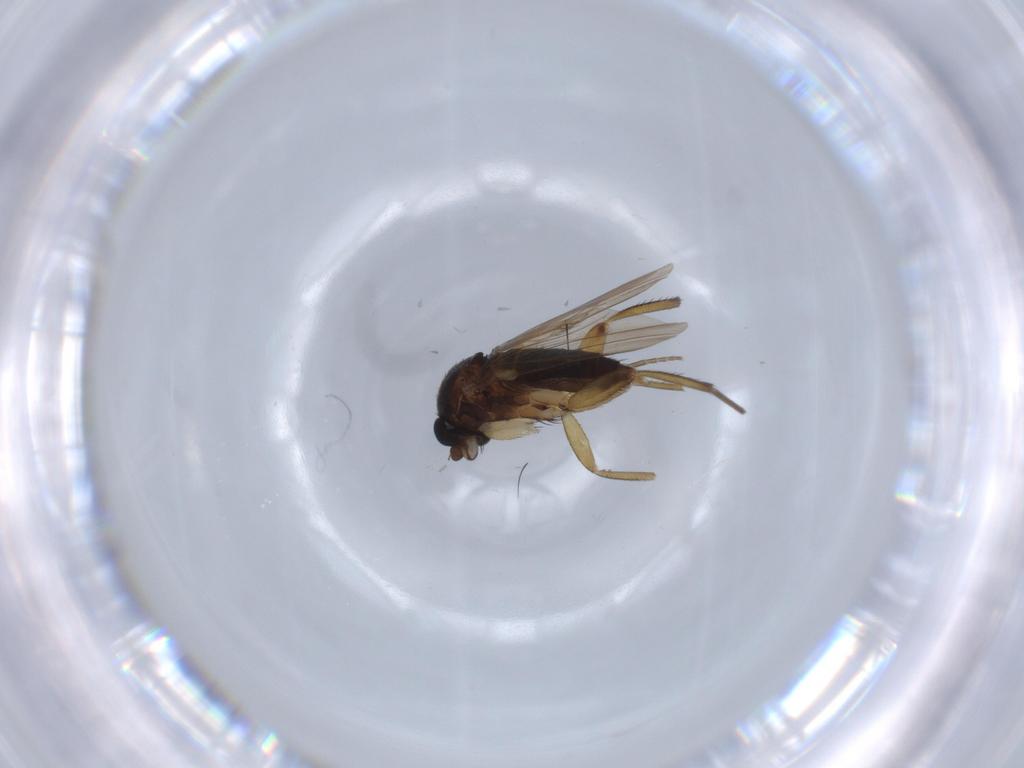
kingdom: Animalia
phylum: Arthropoda
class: Insecta
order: Diptera
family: Phoridae
